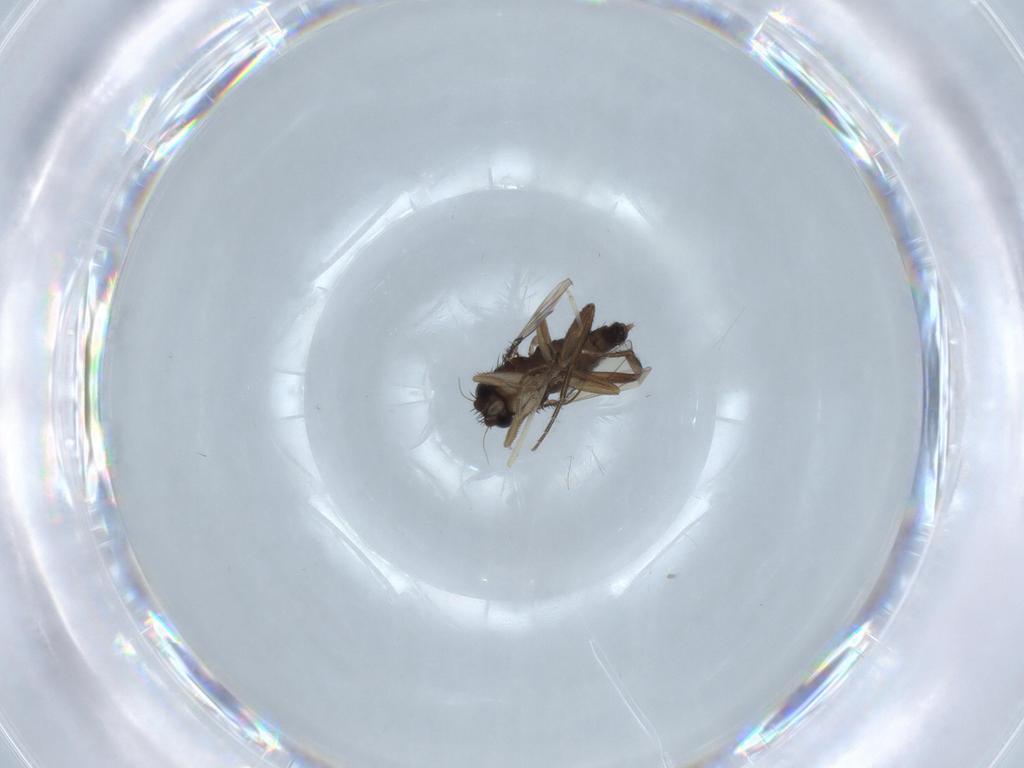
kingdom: Animalia
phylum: Arthropoda
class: Insecta
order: Diptera
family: Cecidomyiidae
